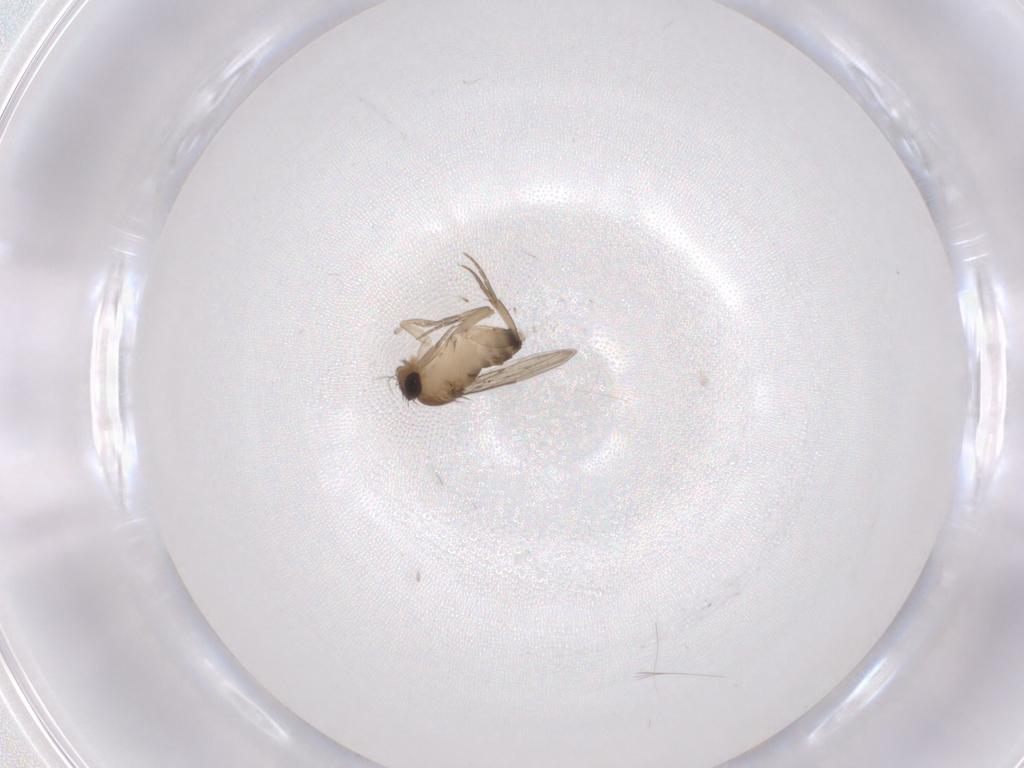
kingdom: Animalia
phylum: Arthropoda
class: Insecta
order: Diptera
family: Phoridae
